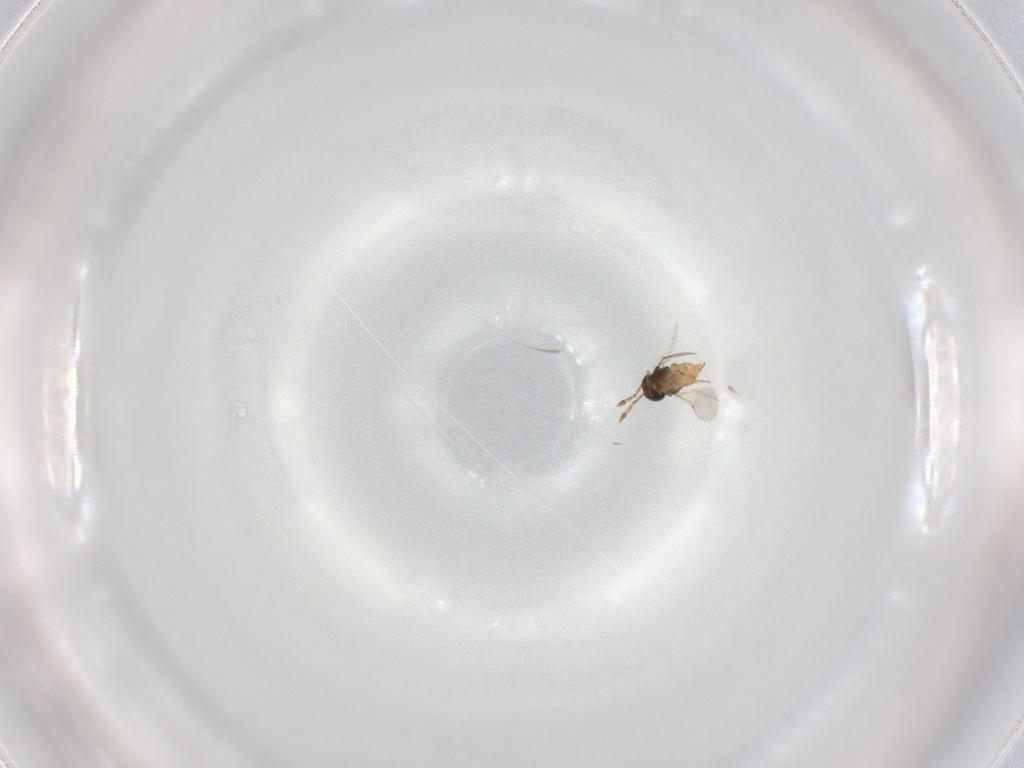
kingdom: Animalia
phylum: Arthropoda
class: Insecta
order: Hymenoptera
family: Encyrtidae
